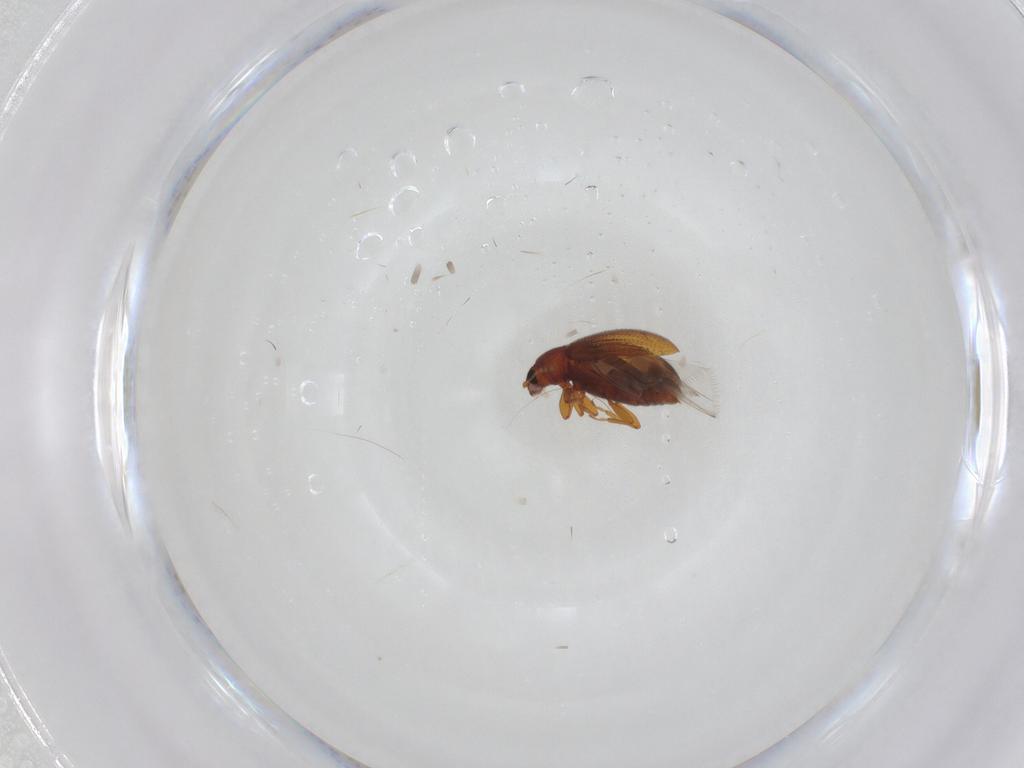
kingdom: Animalia
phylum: Arthropoda
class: Insecta
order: Coleoptera
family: Latridiidae
